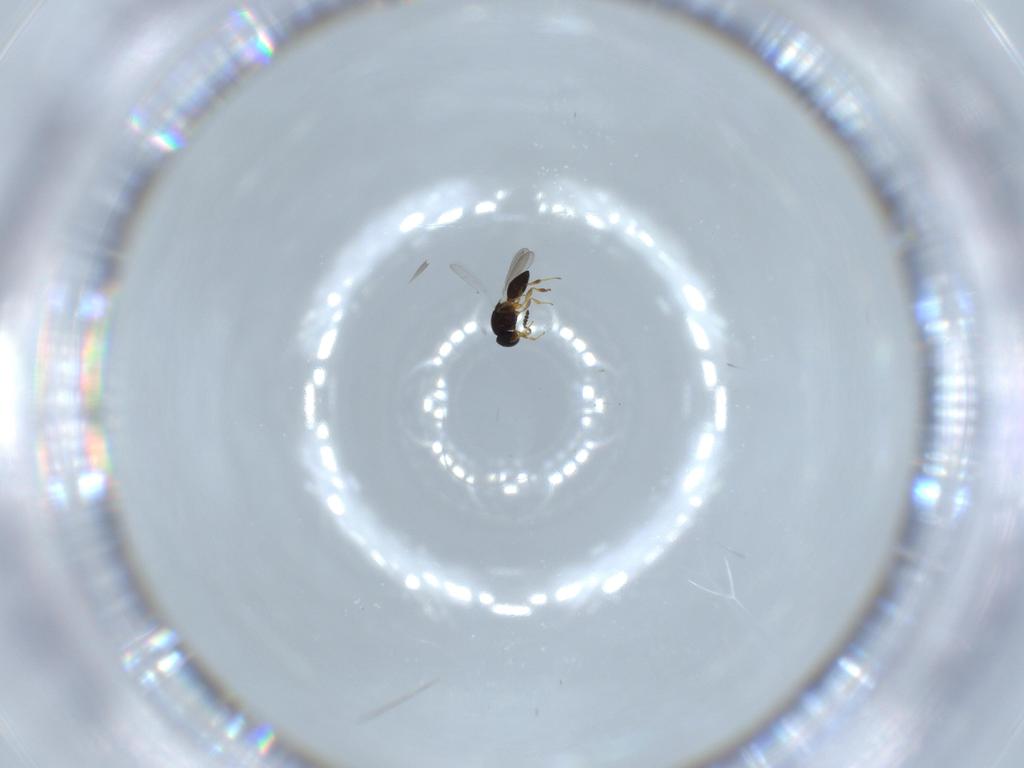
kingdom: Animalia
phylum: Arthropoda
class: Insecta
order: Hymenoptera
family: Platygastridae
